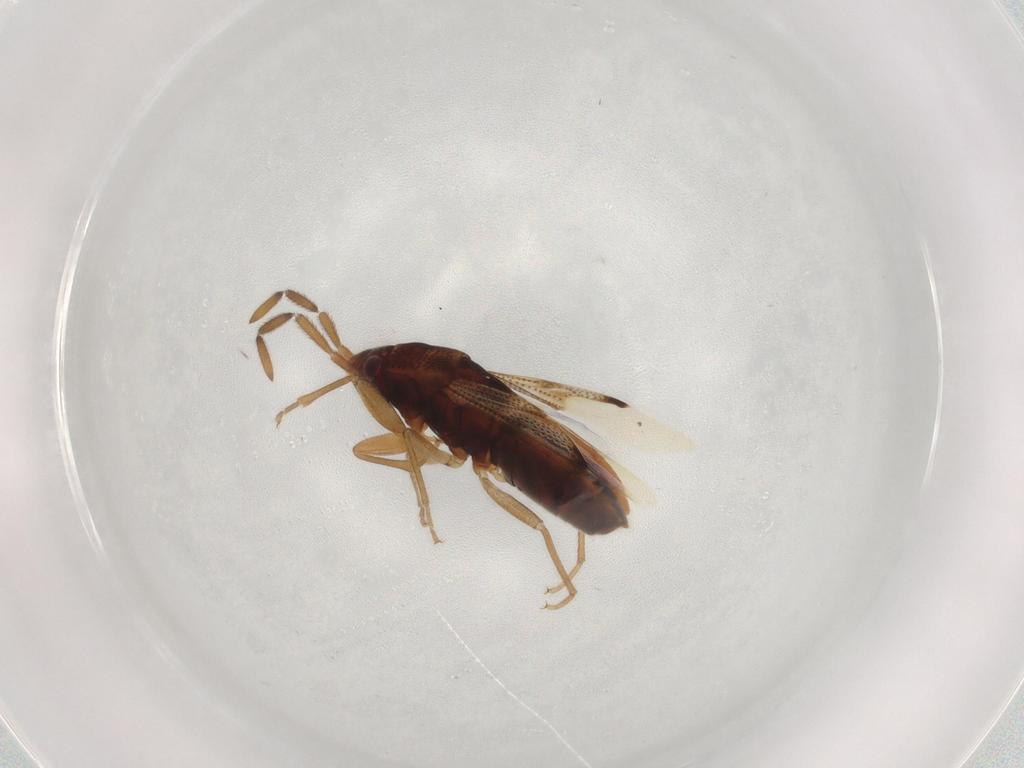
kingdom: Animalia
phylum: Arthropoda
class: Insecta
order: Hemiptera
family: Rhyparochromidae
